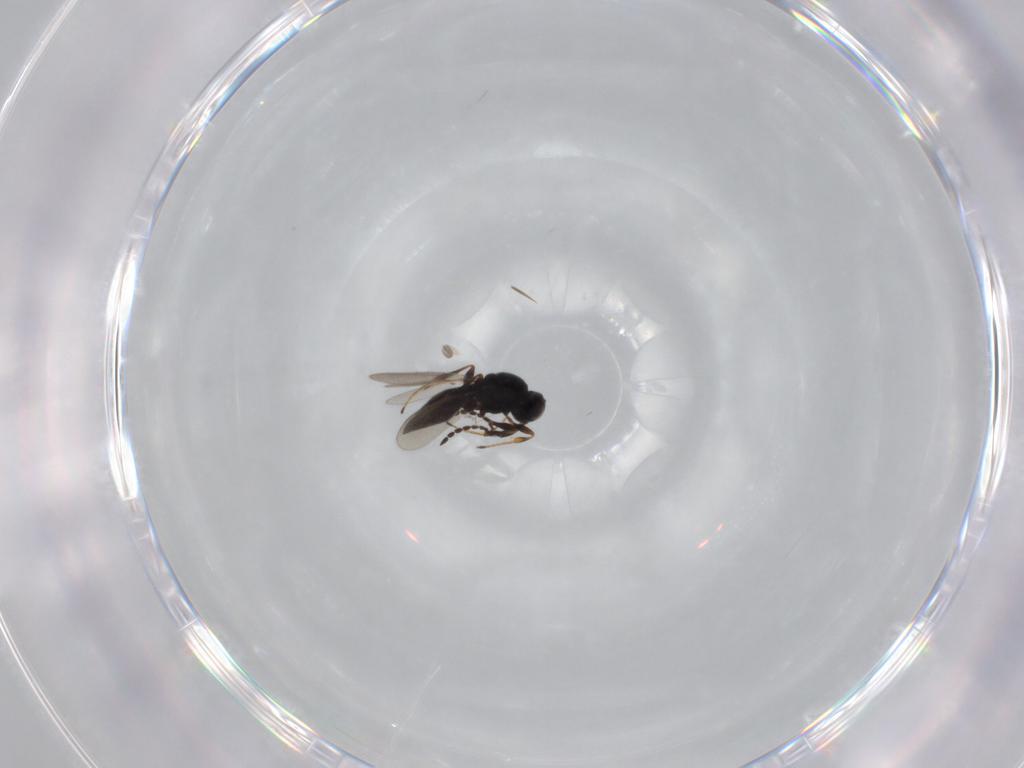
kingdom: Animalia
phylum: Arthropoda
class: Insecta
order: Hymenoptera
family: Platygastridae
